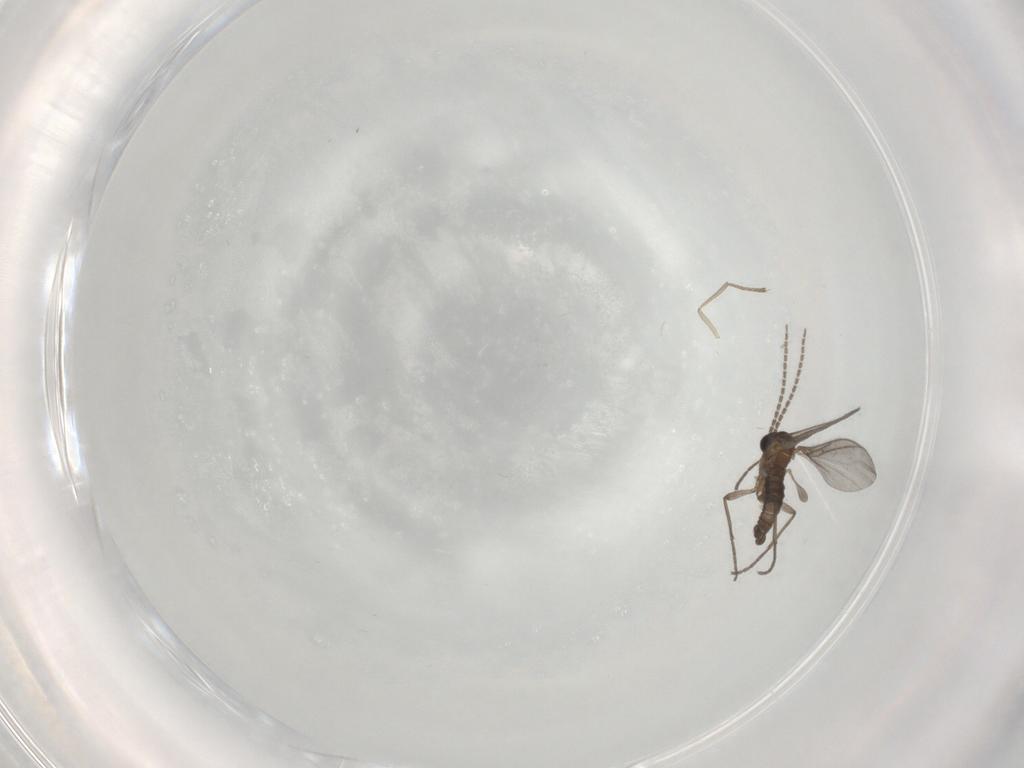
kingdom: Animalia
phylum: Arthropoda
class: Insecta
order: Diptera
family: Sciaridae
